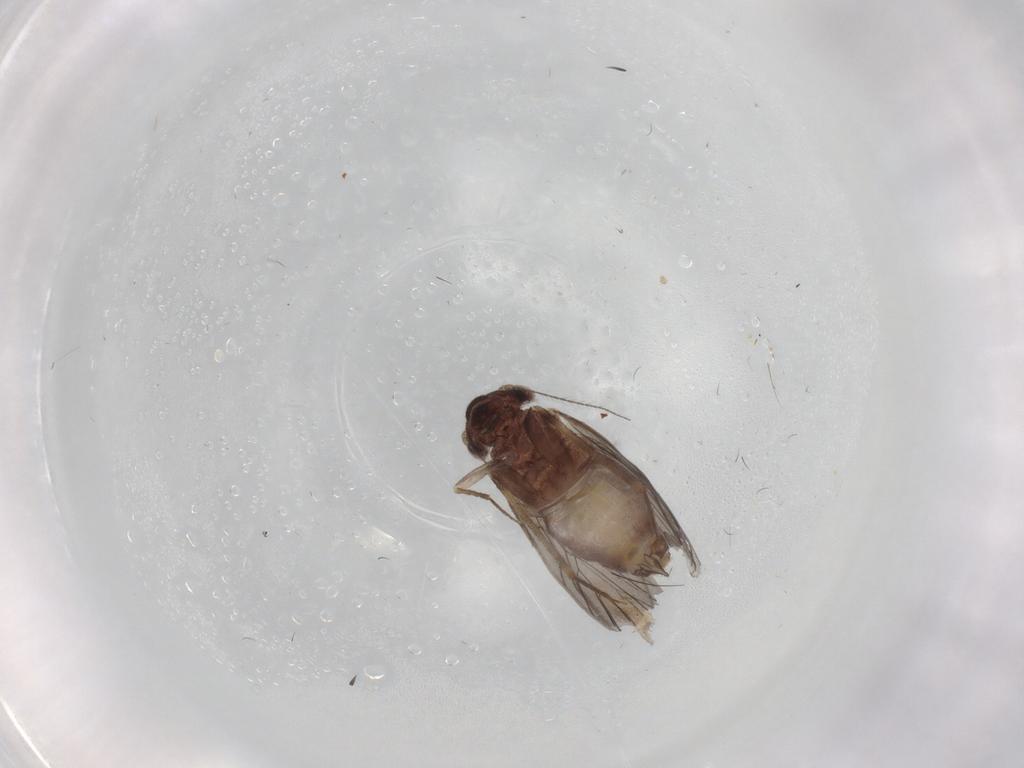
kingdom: Animalia
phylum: Arthropoda
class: Insecta
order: Psocodea
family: Lepidopsocidae
